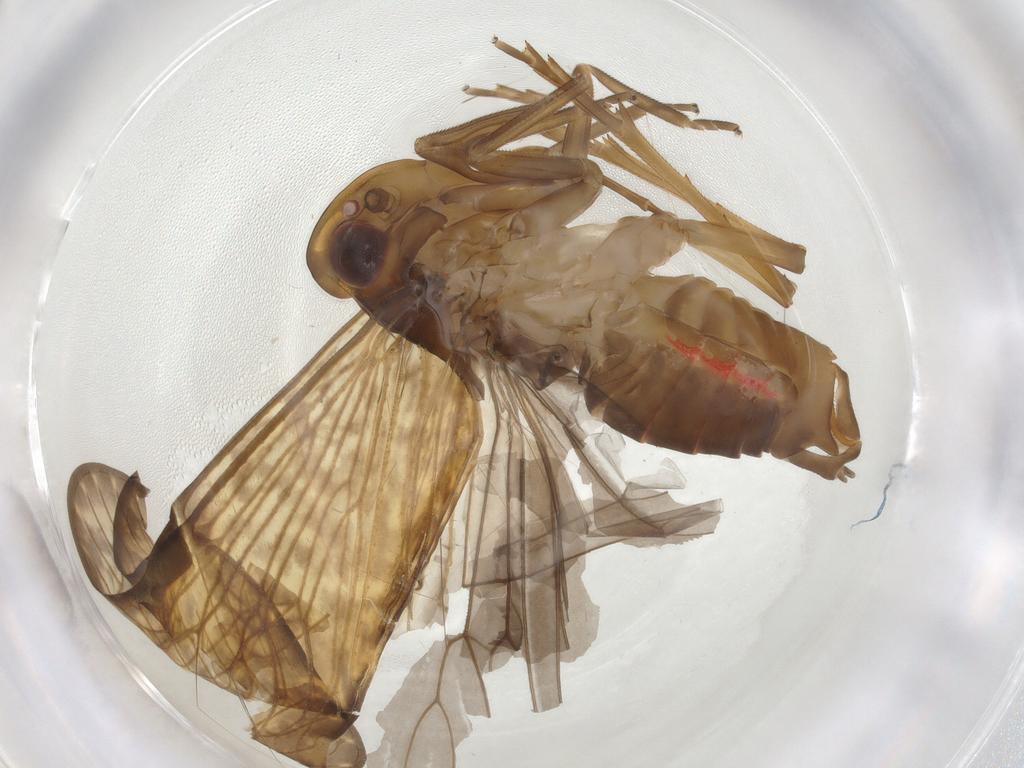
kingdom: Animalia
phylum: Arthropoda
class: Insecta
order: Hemiptera
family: Cixiidae
